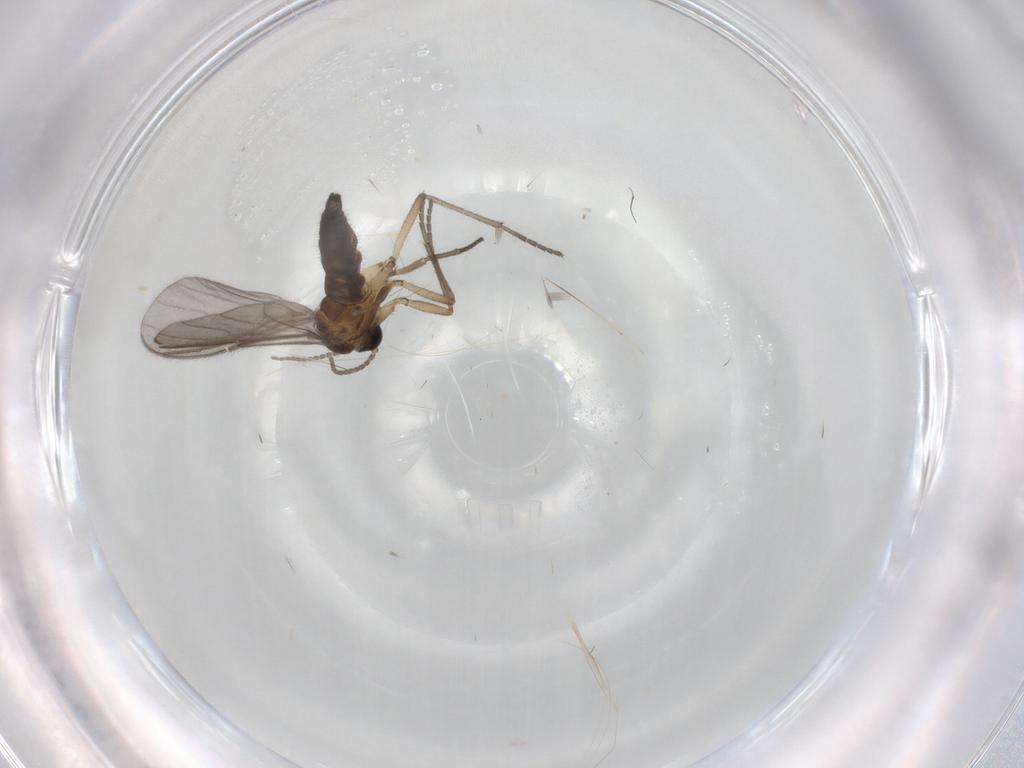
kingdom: Animalia
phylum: Arthropoda
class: Insecta
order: Diptera
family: Sciaridae
